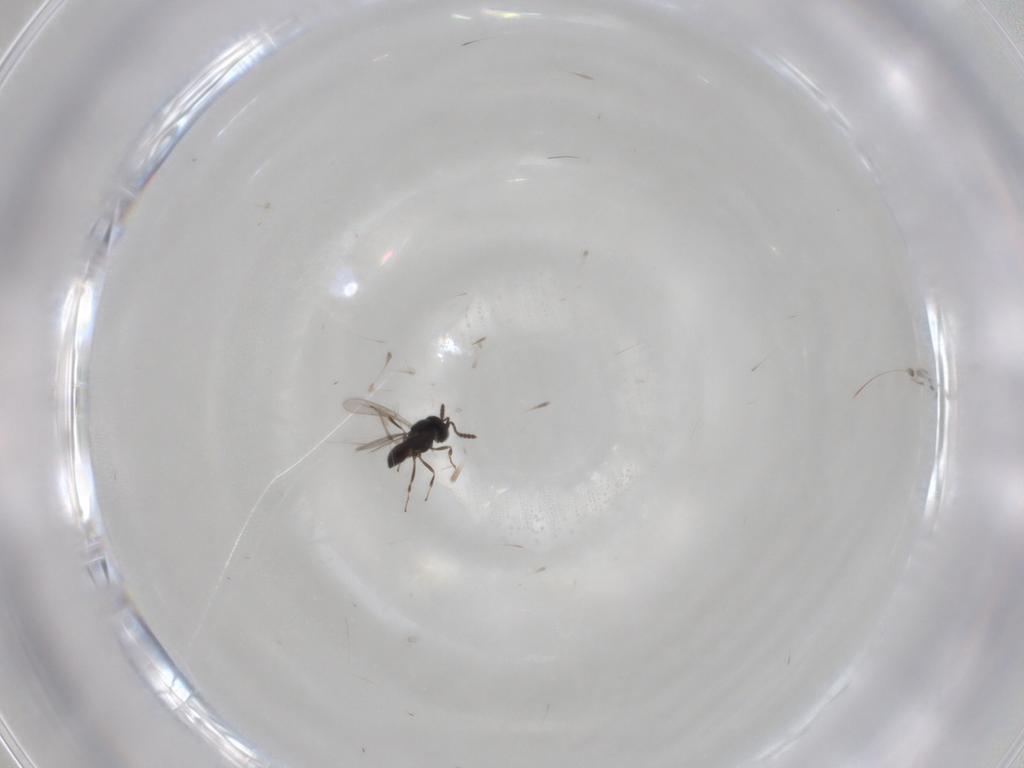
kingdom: Animalia
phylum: Arthropoda
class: Insecta
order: Hymenoptera
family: Scelionidae
